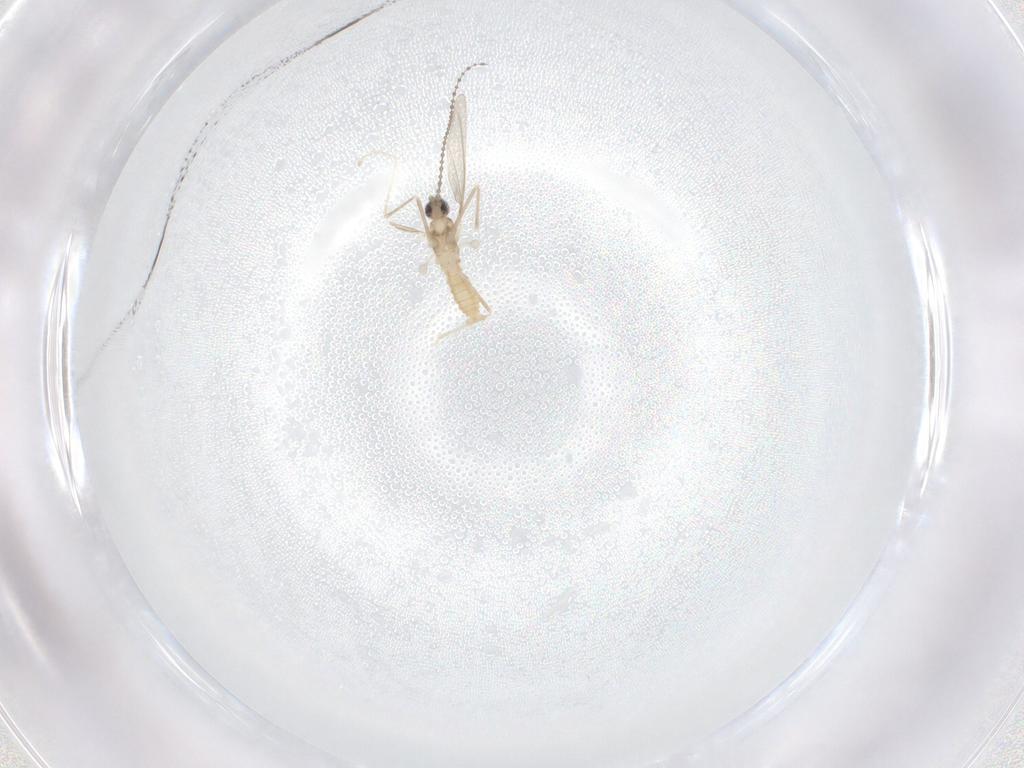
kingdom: Animalia
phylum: Arthropoda
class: Insecta
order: Diptera
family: Cecidomyiidae
